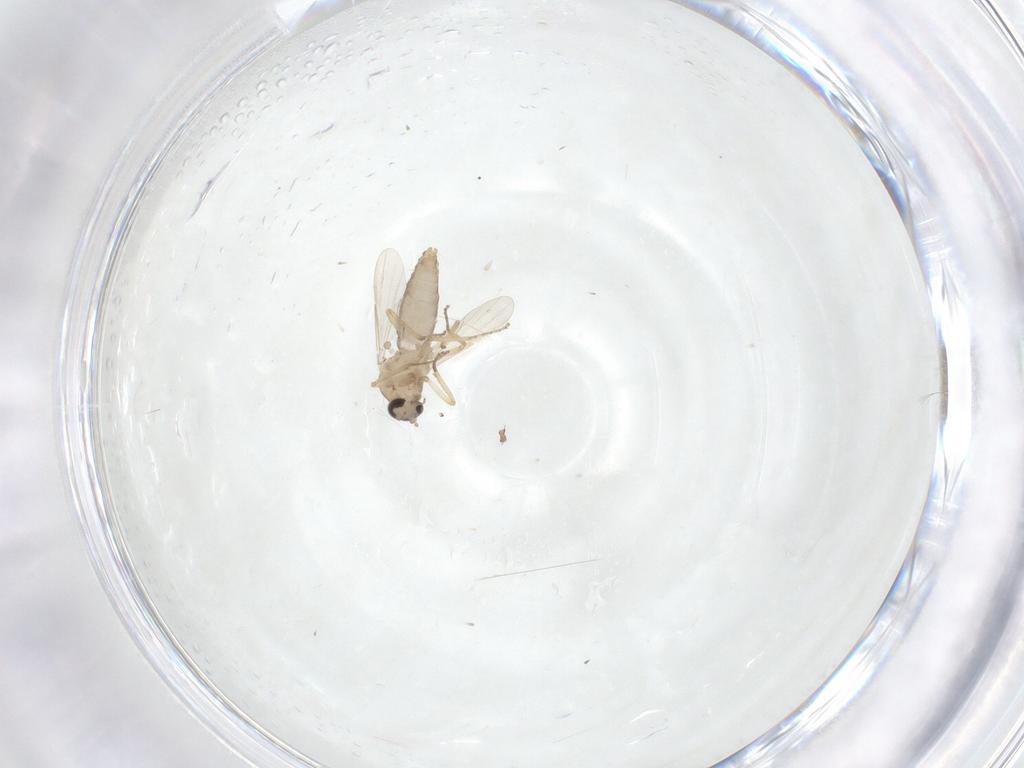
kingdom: Animalia
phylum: Arthropoda
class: Insecta
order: Diptera
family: Ceratopogonidae
